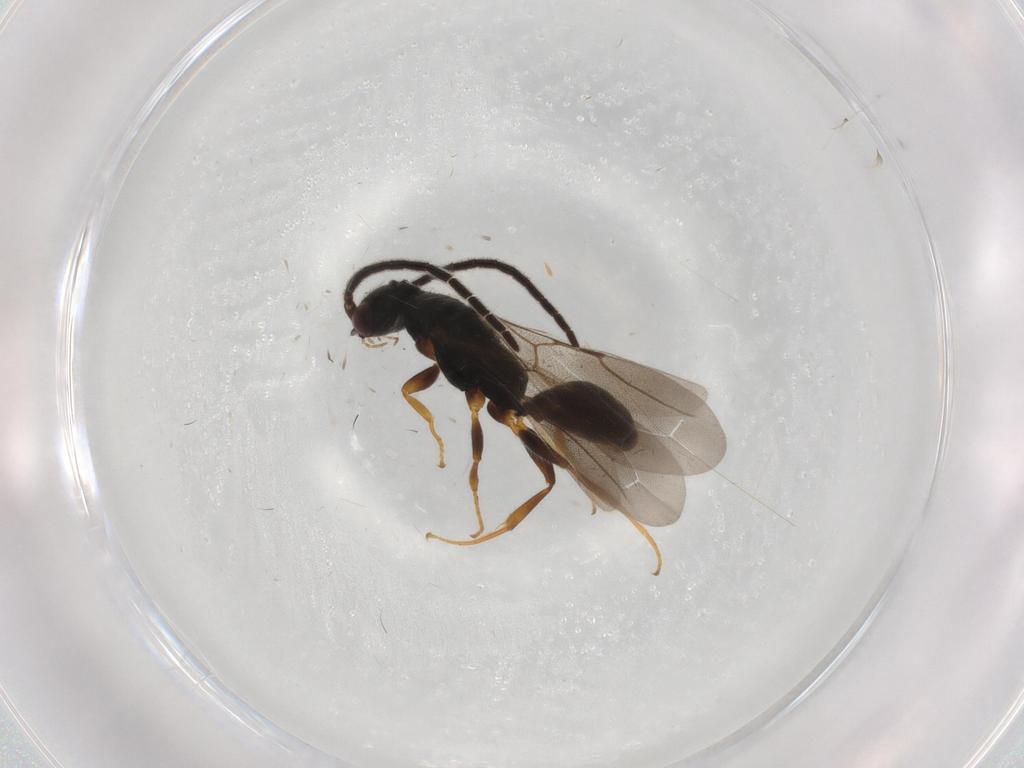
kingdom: Animalia
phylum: Arthropoda
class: Insecta
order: Hymenoptera
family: Bethylidae
